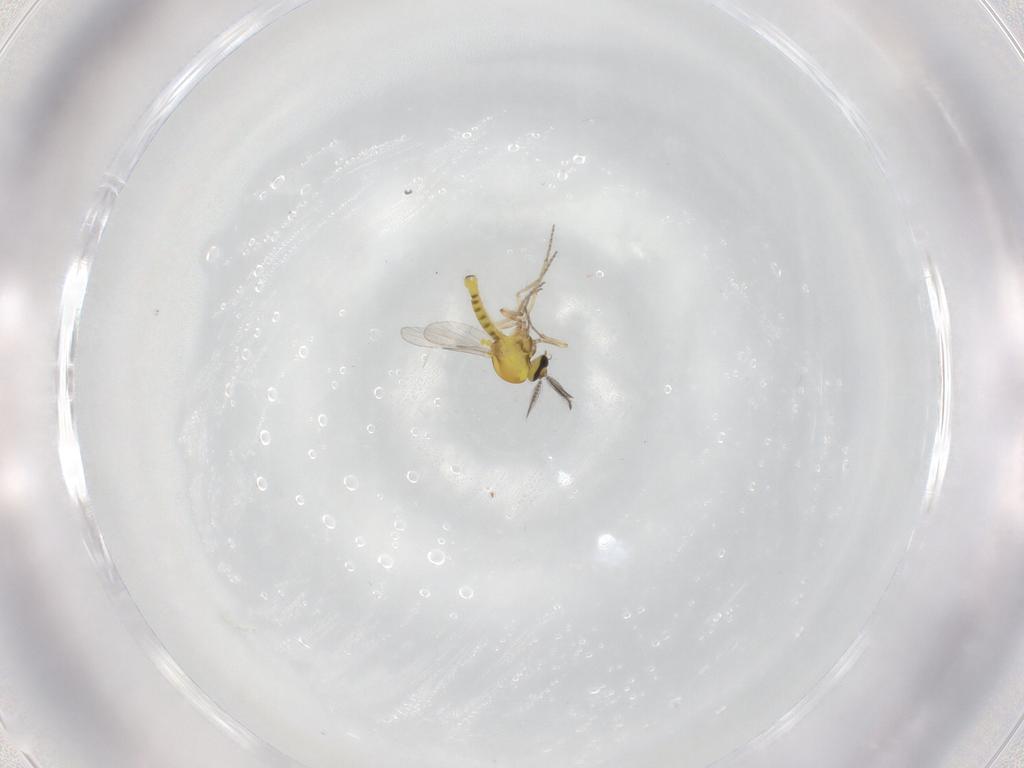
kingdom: Animalia
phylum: Arthropoda
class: Insecta
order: Diptera
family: Ceratopogonidae
